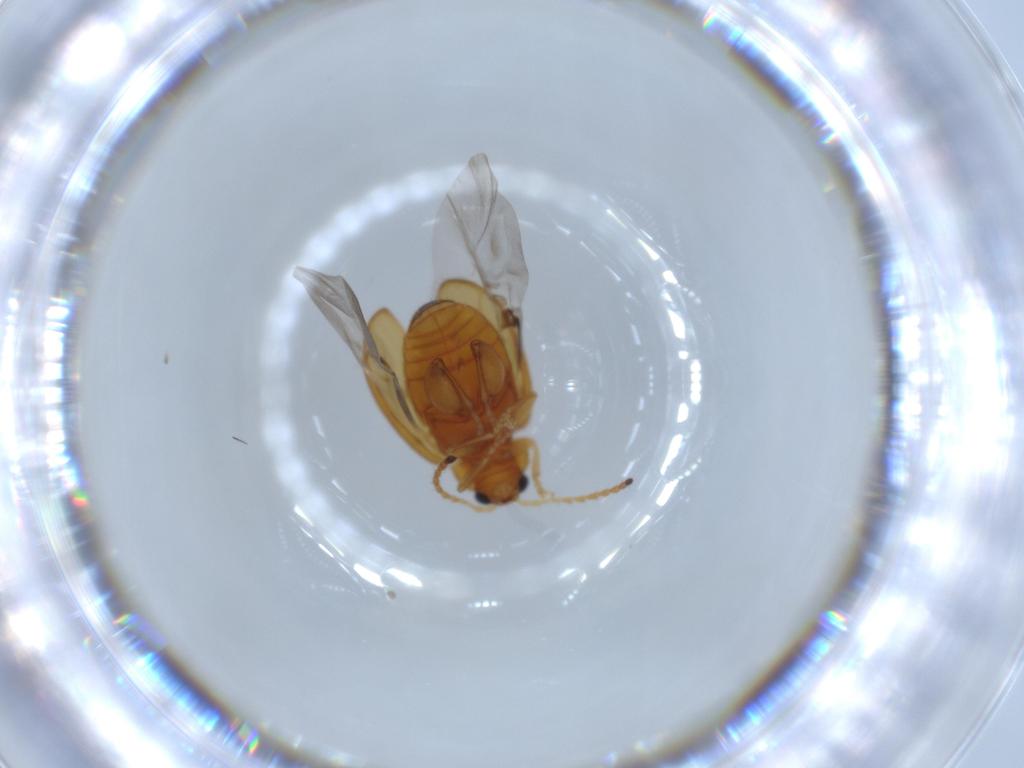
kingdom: Animalia
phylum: Arthropoda
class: Insecta
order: Coleoptera
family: Chrysomelidae
